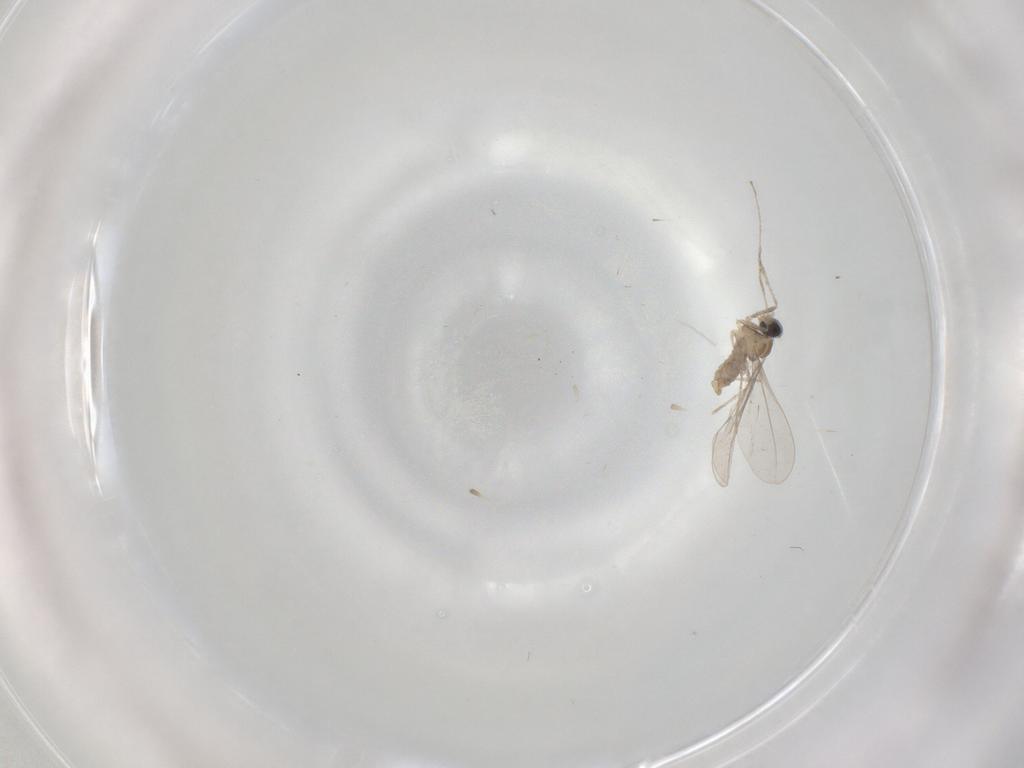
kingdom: Animalia
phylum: Arthropoda
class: Insecta
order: Diptera
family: Cecidomyiidae
